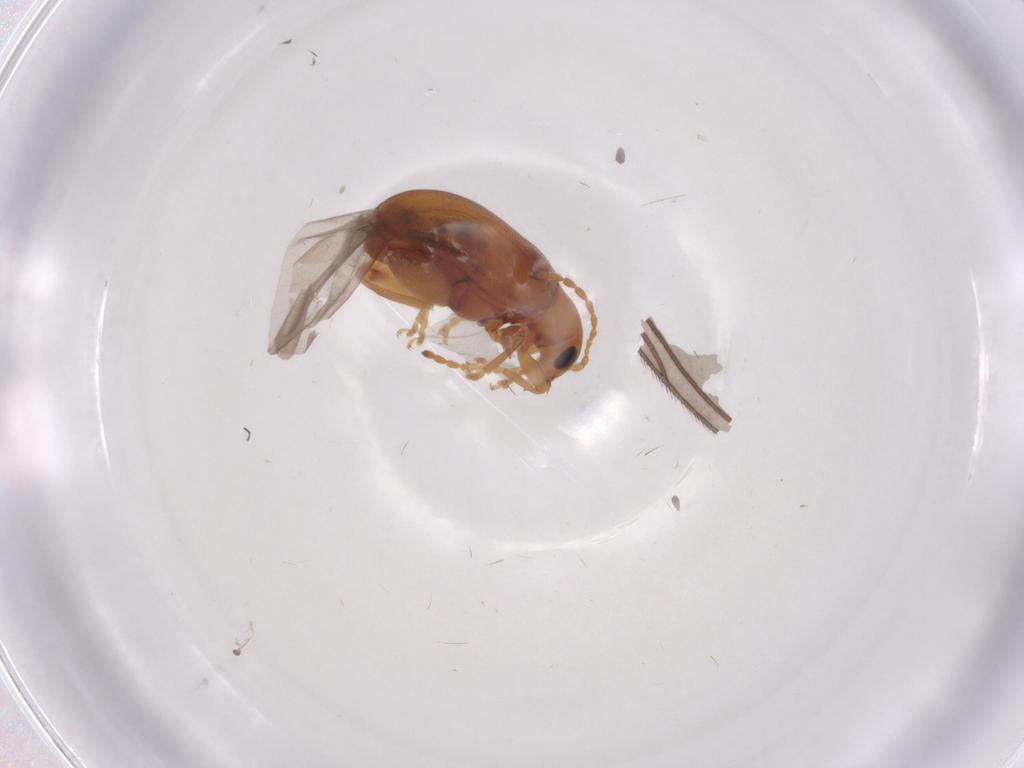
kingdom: Animalia
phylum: Arthropoda
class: Insecta
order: Coleoptera
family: Chrysomelidae
